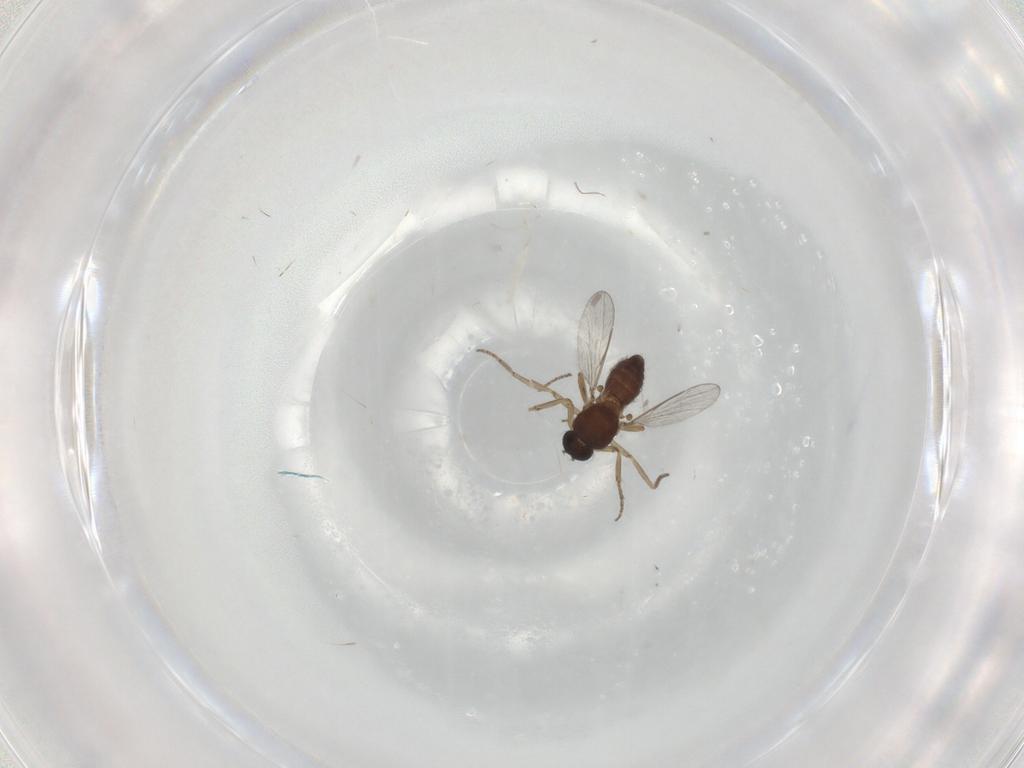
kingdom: Animalia
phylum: Arthropoda
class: Insecta
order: Diptera
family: Ceratopogonidae
